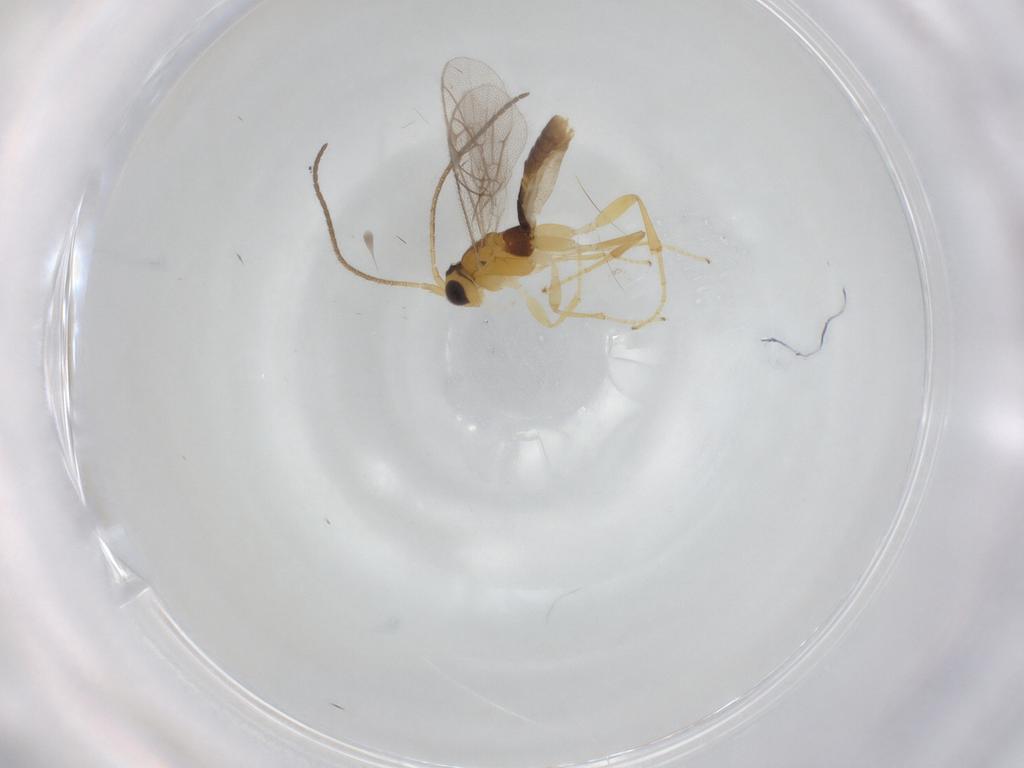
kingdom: Animalia
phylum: Arthropoda
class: Insecta
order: Hymenoptera
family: Ichneumonidae
